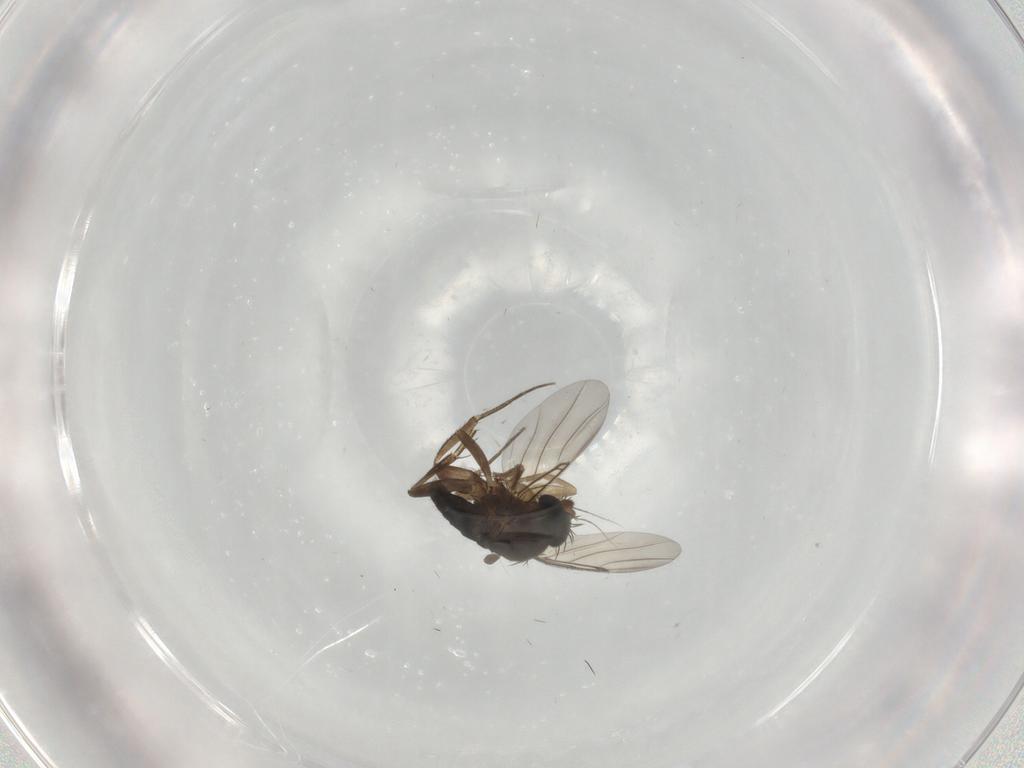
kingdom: Animalia
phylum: Arthropoda
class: Insecta
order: Diptera
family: Phoridae
